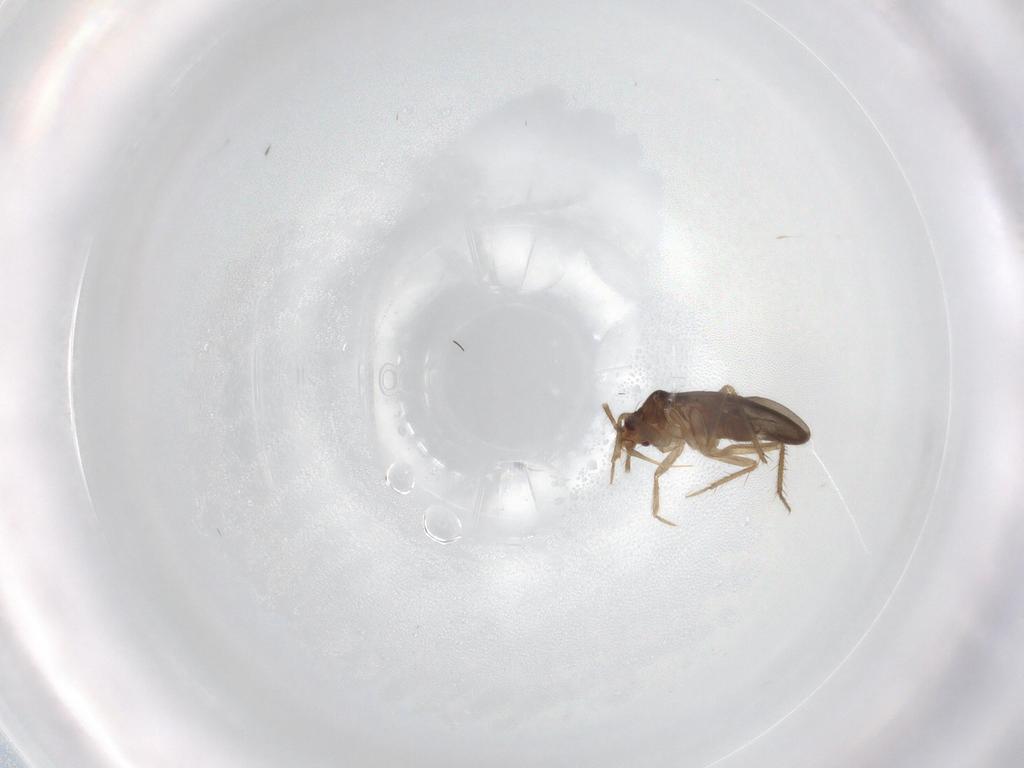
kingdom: Animalia
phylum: Arthropoda
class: Insecta
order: Hemiptera
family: Ceratocombidae
